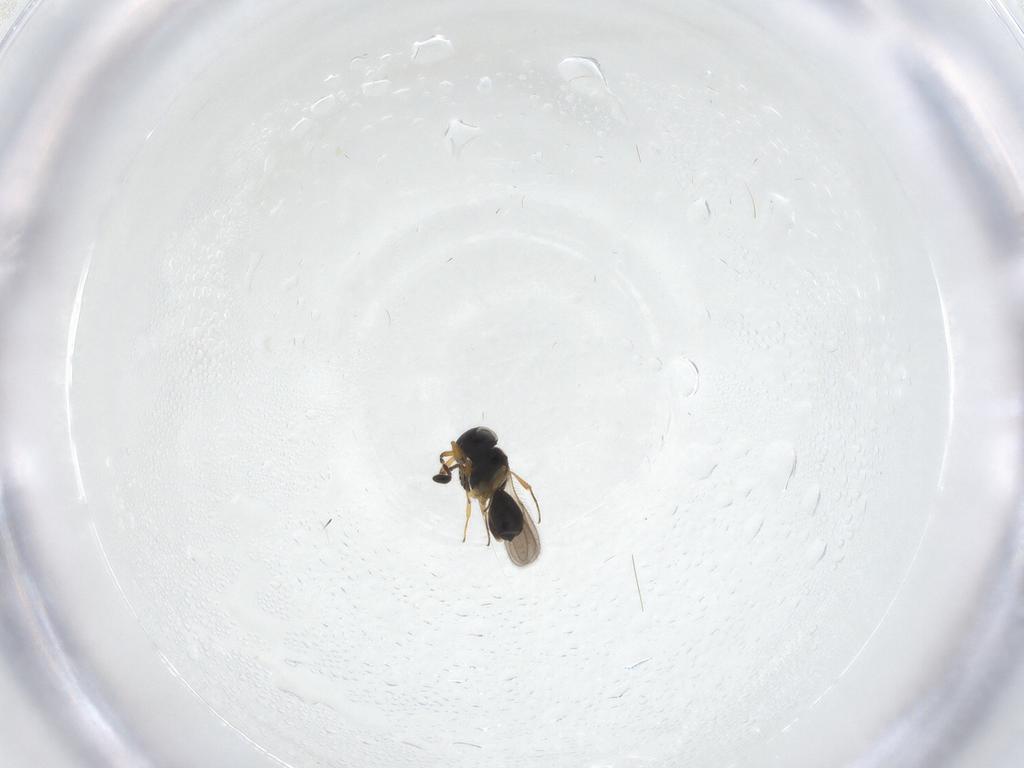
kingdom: Animalia
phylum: Arthropoda
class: Insecta
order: Hymenoptera
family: Scelionidae
